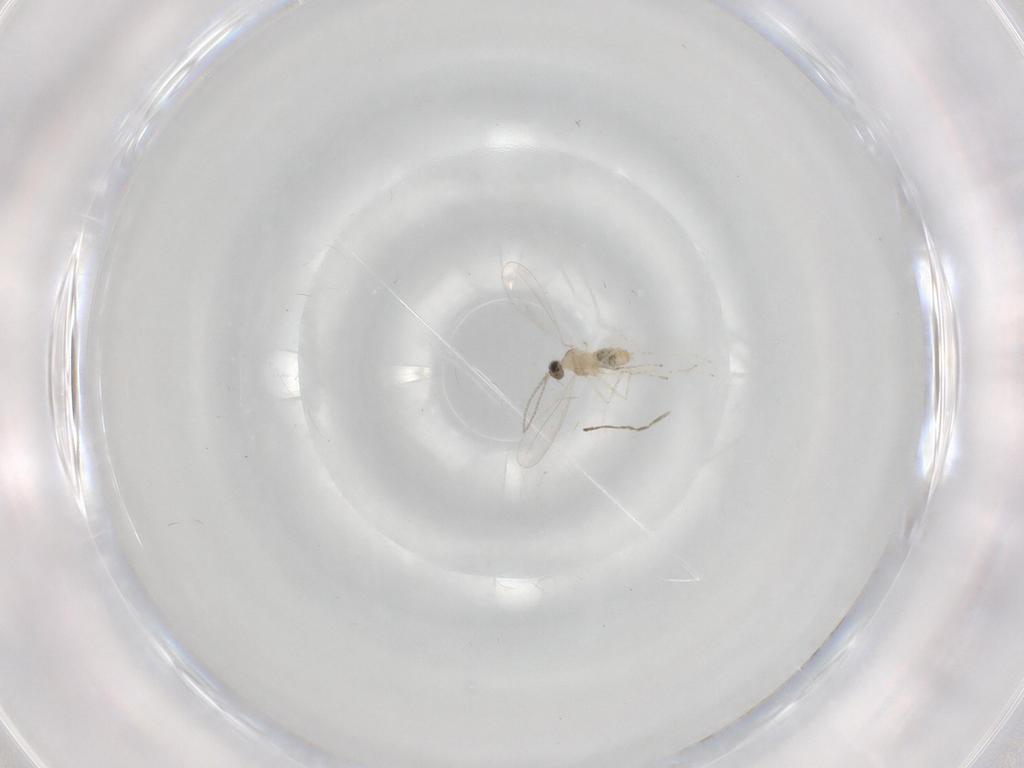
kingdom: Animalia
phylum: Arthropoda
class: Insecta
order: Diptera
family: Cecidomyiidae
